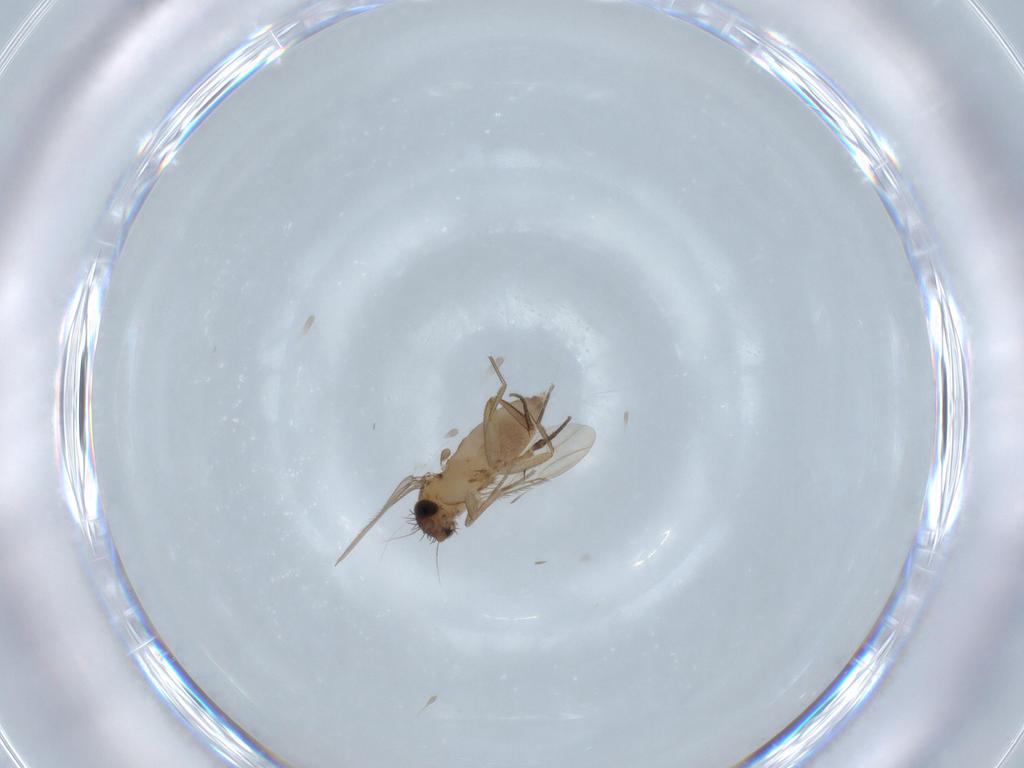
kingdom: Animalia
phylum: Arthropoda
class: Insecta
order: Diptera
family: Phoridae
